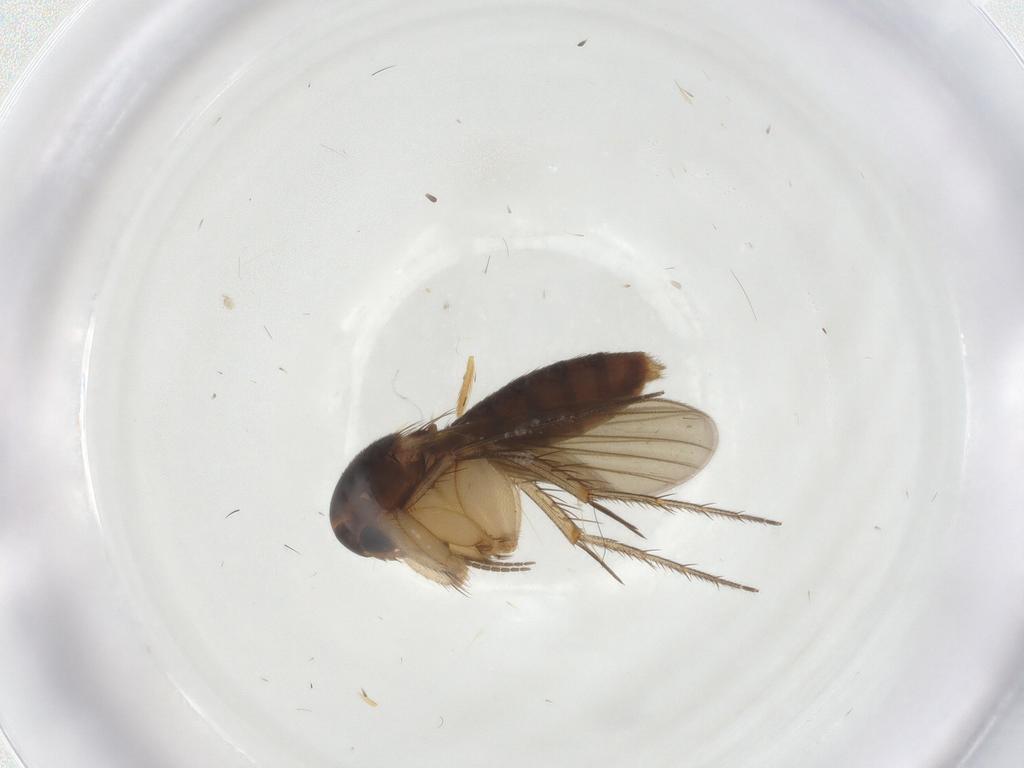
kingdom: Animalia
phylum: Arthropoda
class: Insecta
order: Diptera
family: Mycetophilidae
